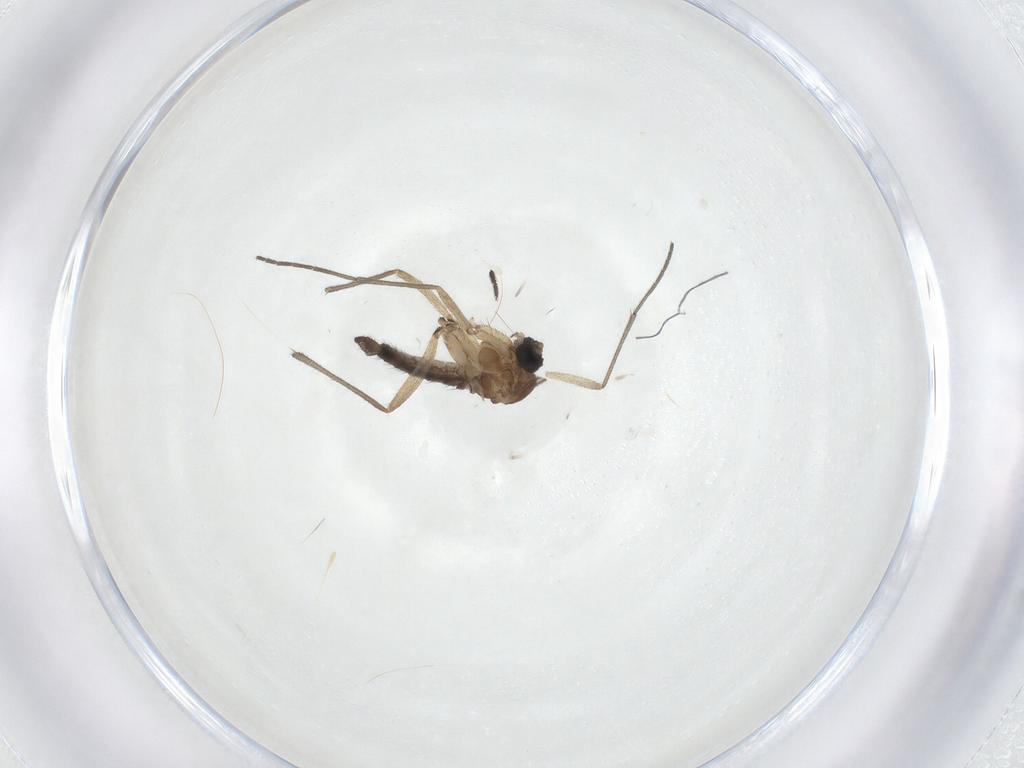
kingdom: Animalia
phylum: Arthropoda
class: Insecta
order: Diptera
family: Sciaridae
